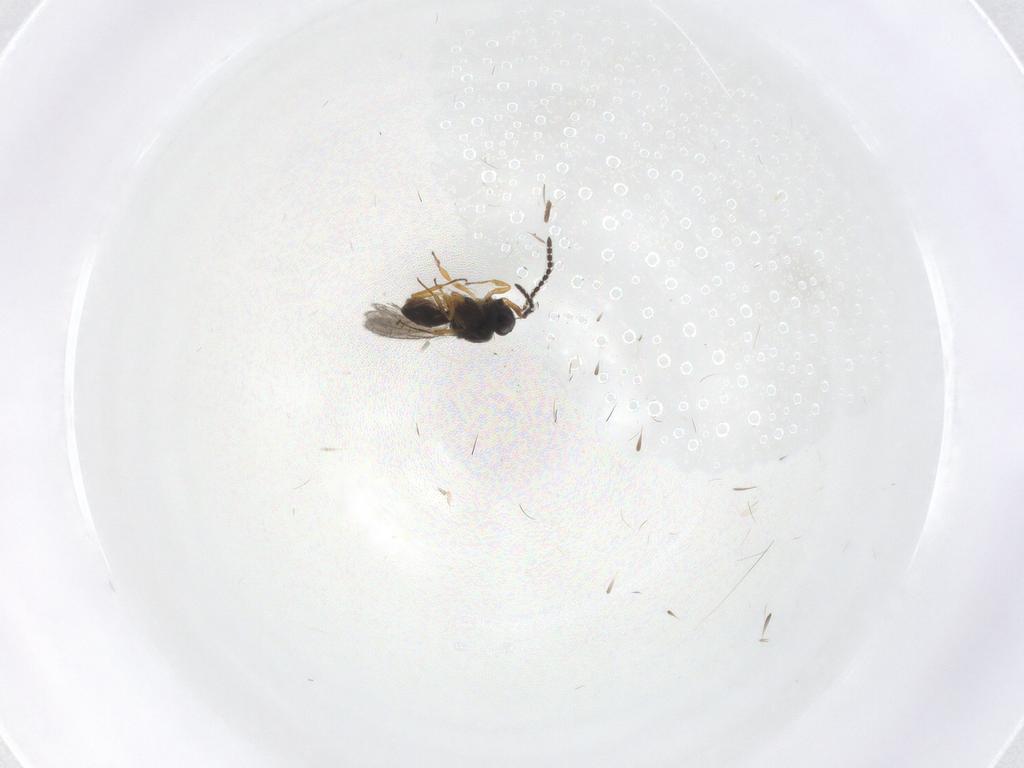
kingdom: Animalia
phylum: Arthropoda
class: Insecta
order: Hymenoptera
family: Scelionidae
